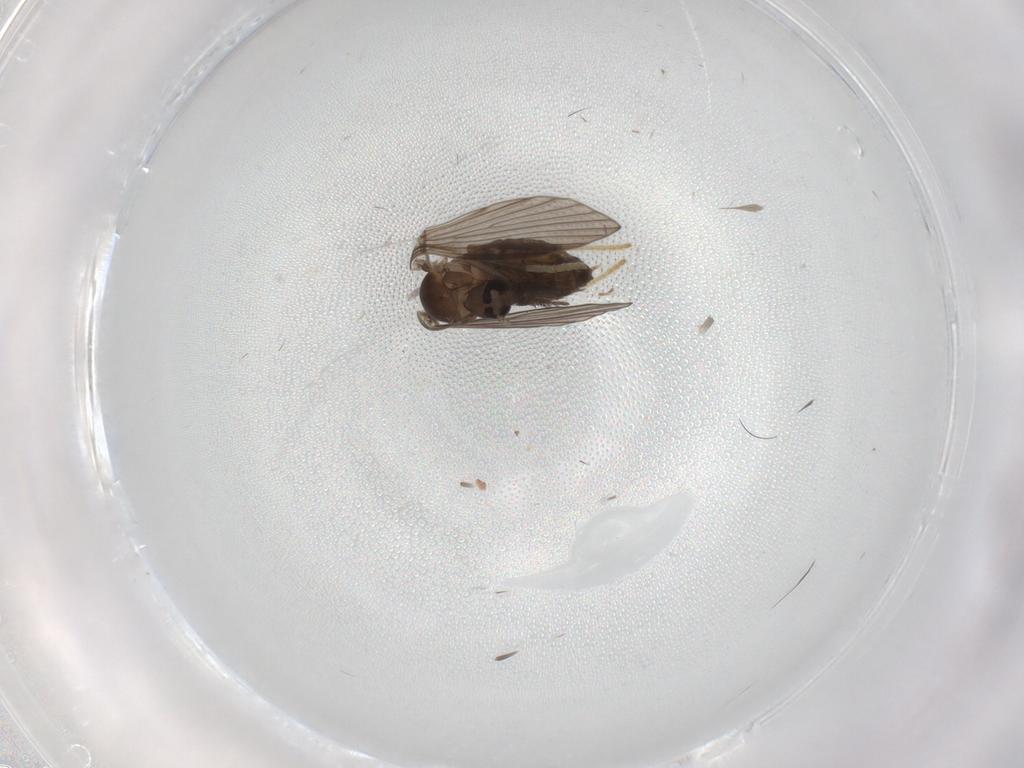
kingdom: Animalia
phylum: Arthropoda
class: Insecta
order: Diptera
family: Psychodidae
